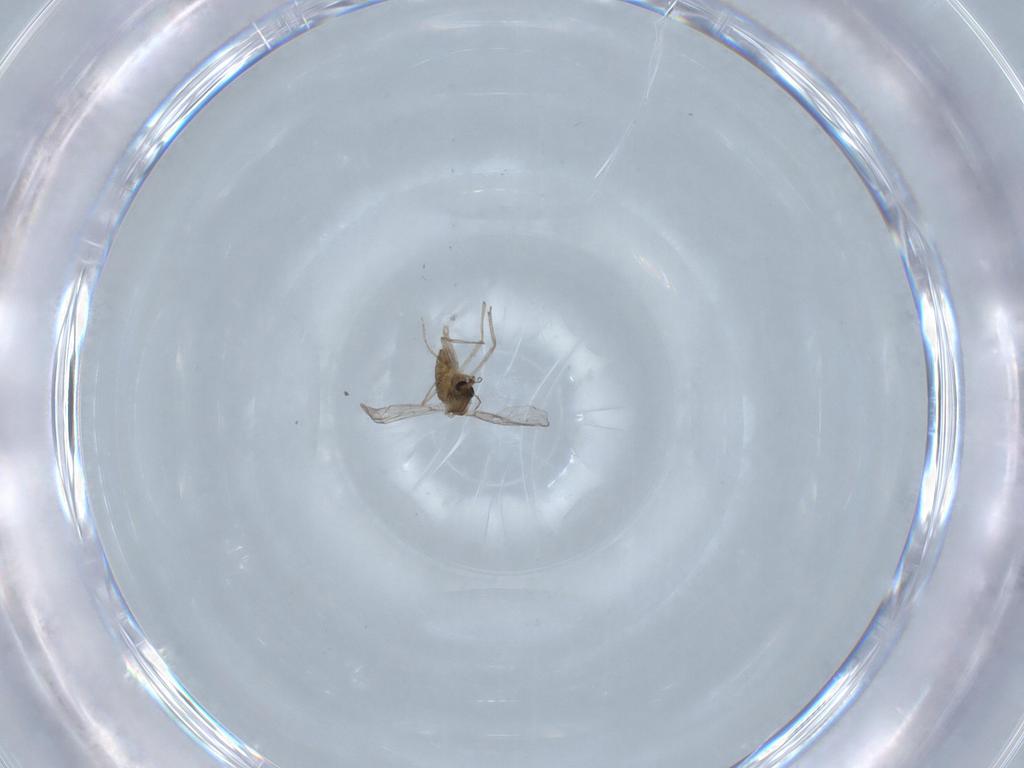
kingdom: Animalia
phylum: Arthropoda
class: Insecta
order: Diptera
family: Chironomidae
